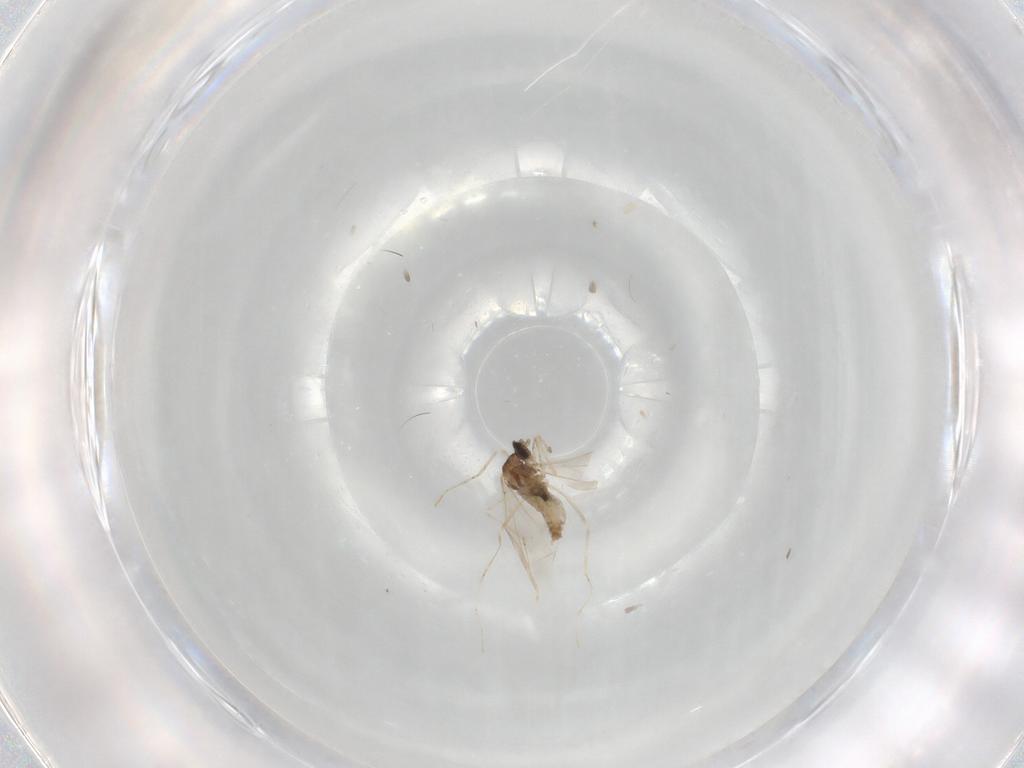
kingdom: Animalia
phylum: Arthropoda
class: Insecta
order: Diptera
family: Cecidomyiidae
